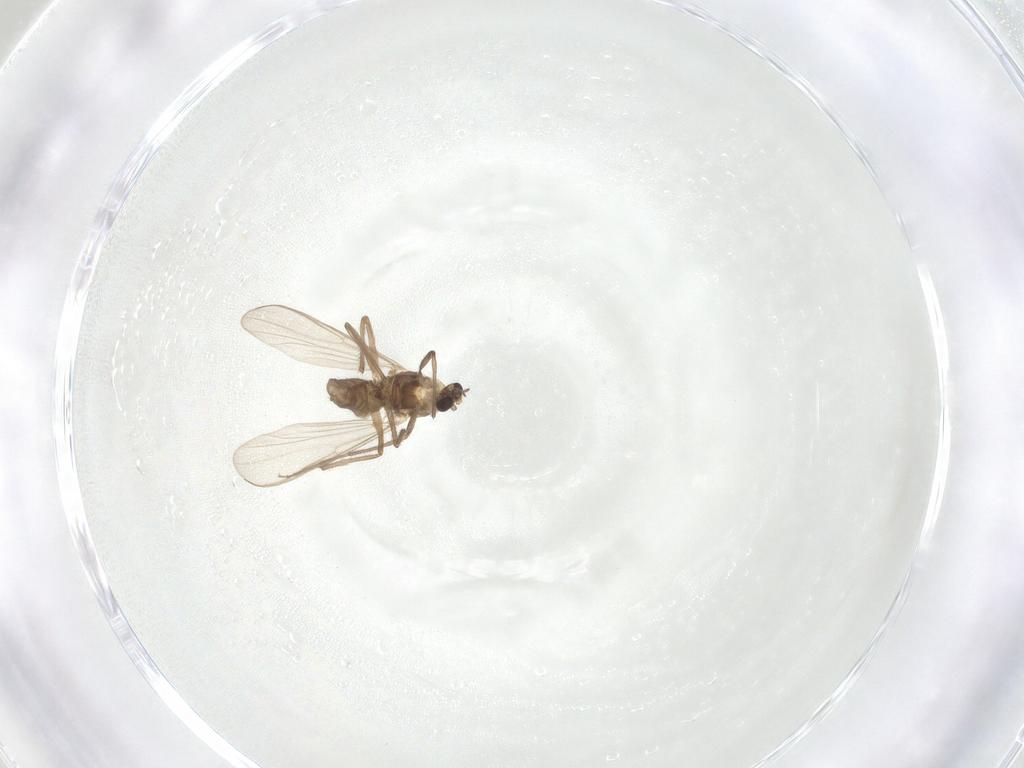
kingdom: Animalia
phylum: Arthropoda
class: Insecta
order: Diptera
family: Chironomidae
